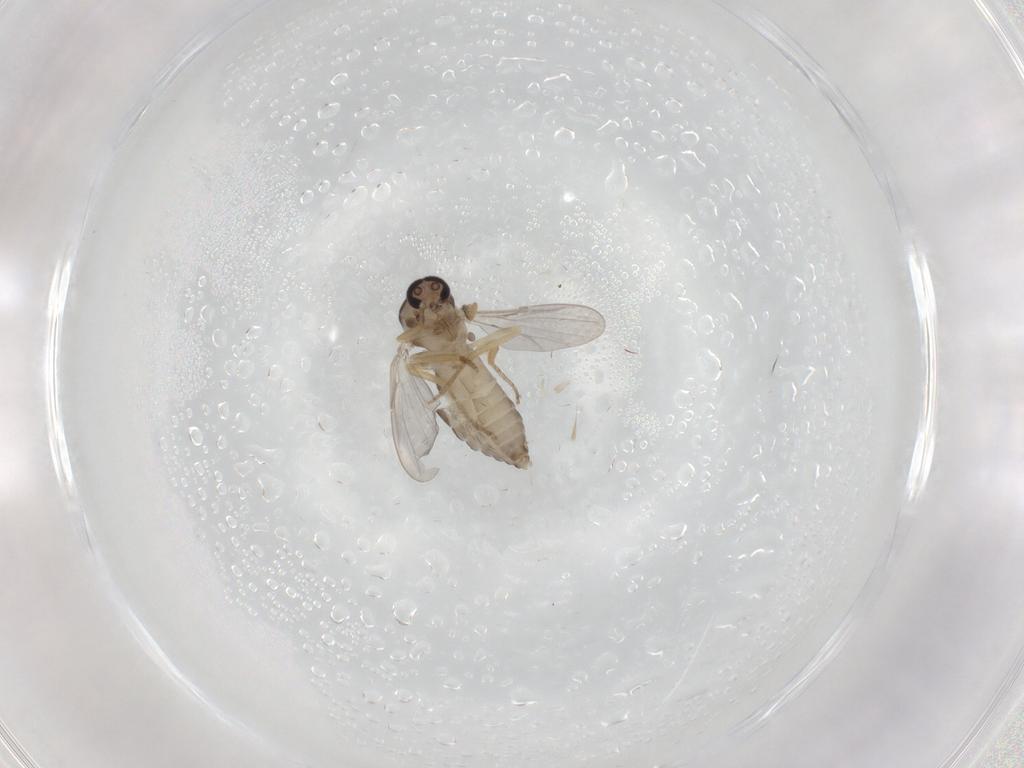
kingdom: Animalia
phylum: Arthropoda
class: Insecta
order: Diptera
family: Ceratopogonidae
